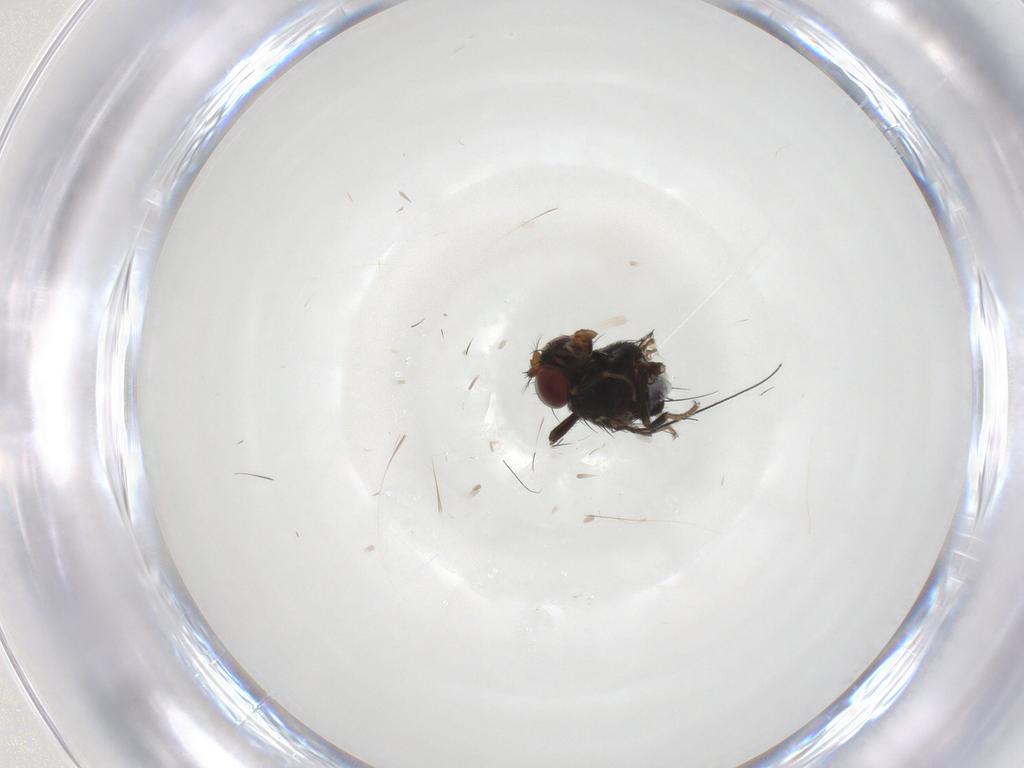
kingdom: Animalia
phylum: Arthropoda
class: Insecta
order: Diptera
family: Ephydridae
